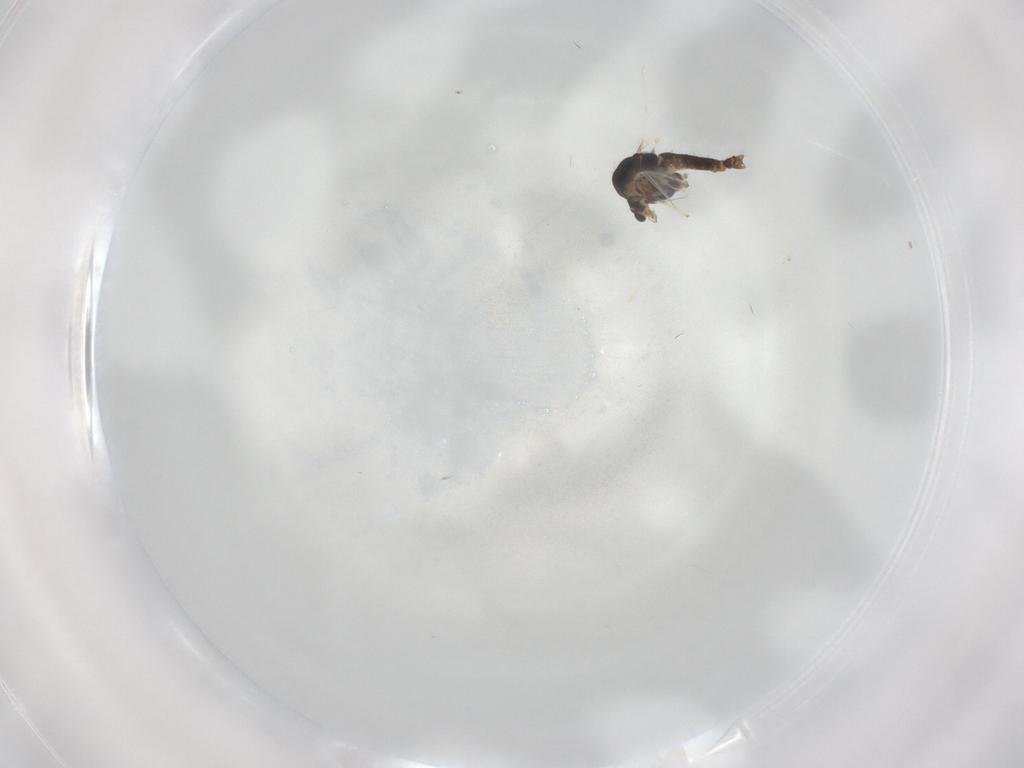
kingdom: Animalia
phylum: Arthropoda
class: Insecta
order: Diptera
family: Chironomidae
